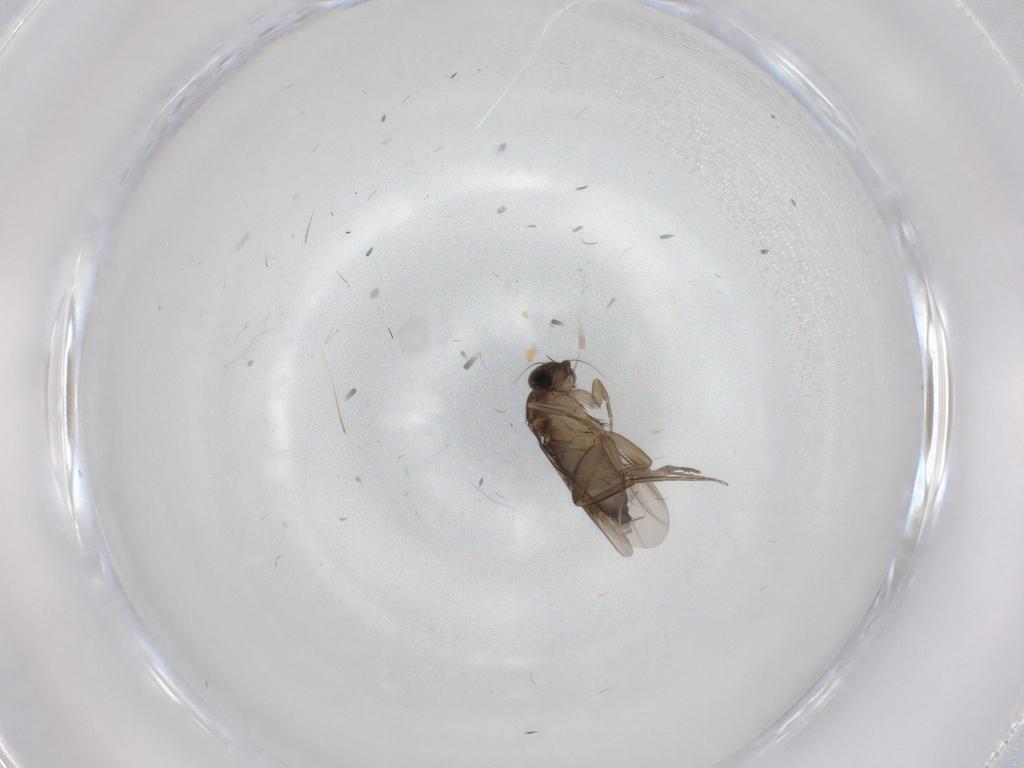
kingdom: Animalia
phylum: Arthropoda
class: Insecta
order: Diptera
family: Phoridae
